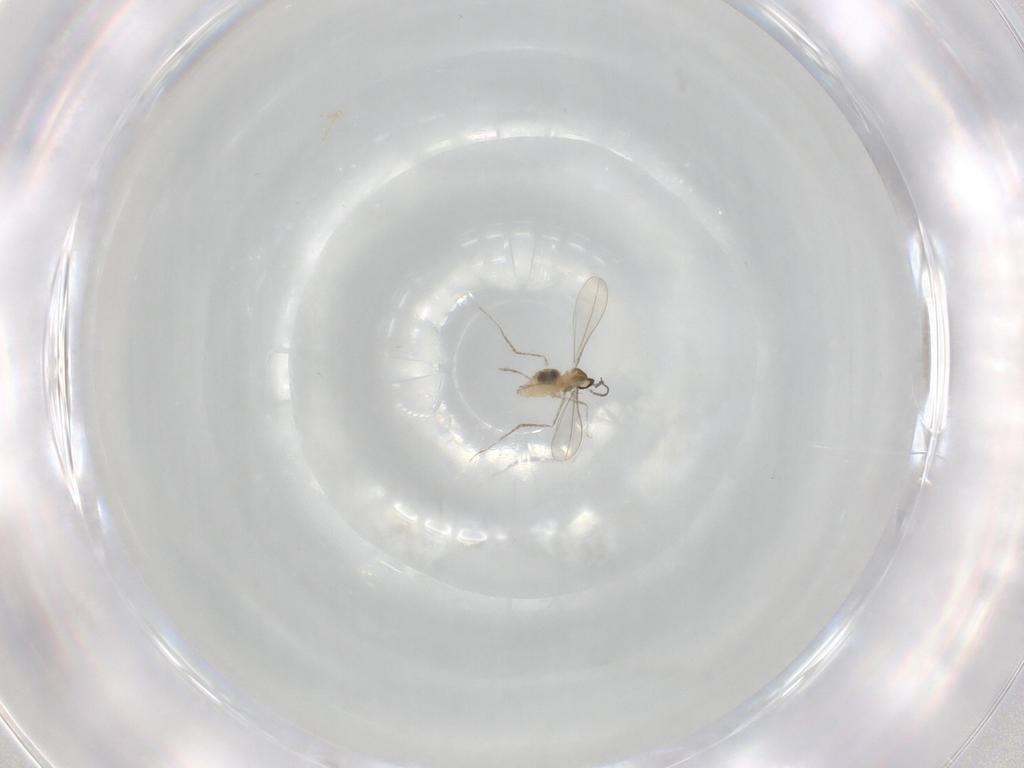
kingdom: Animalia
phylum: Arthropoda
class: Insecta
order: Diptera
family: Cecidomyiidae
